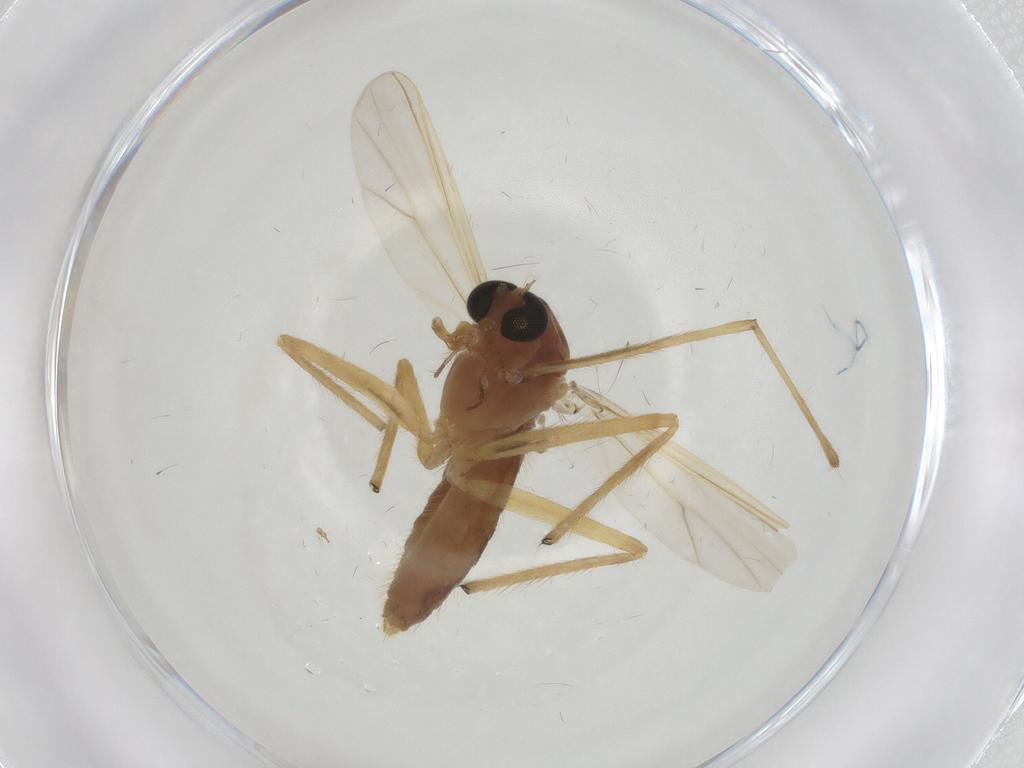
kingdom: Animalia
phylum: Arthropoda
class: Insecta
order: Diptera
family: Chironomidae
